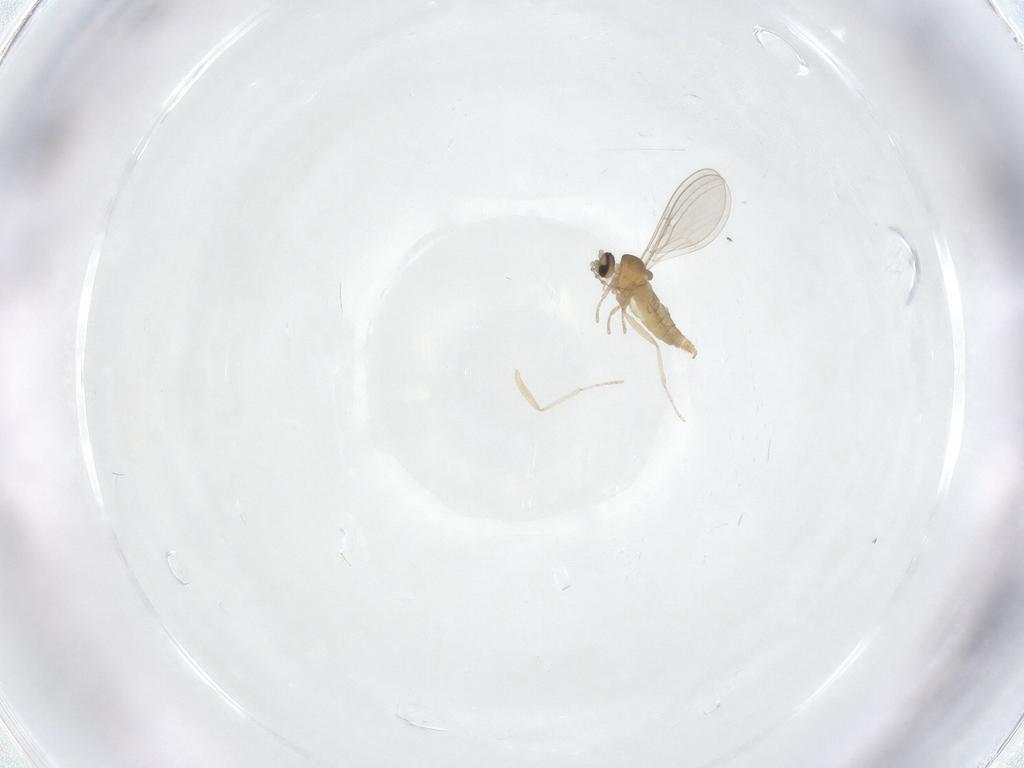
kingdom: Animalia
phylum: Arthropoda
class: Insecta
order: Diptera
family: Cecidomyiidae
